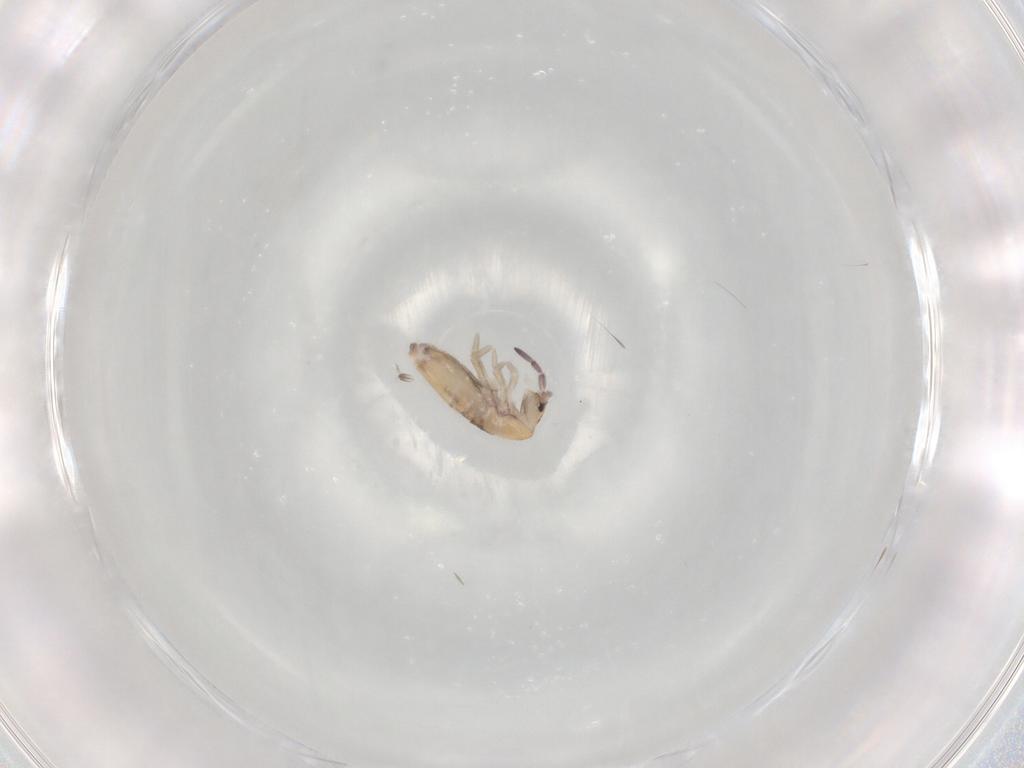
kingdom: Animalia
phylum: Arthropoda
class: Collembola
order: Entomobryomorpha
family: Entomobryidae
